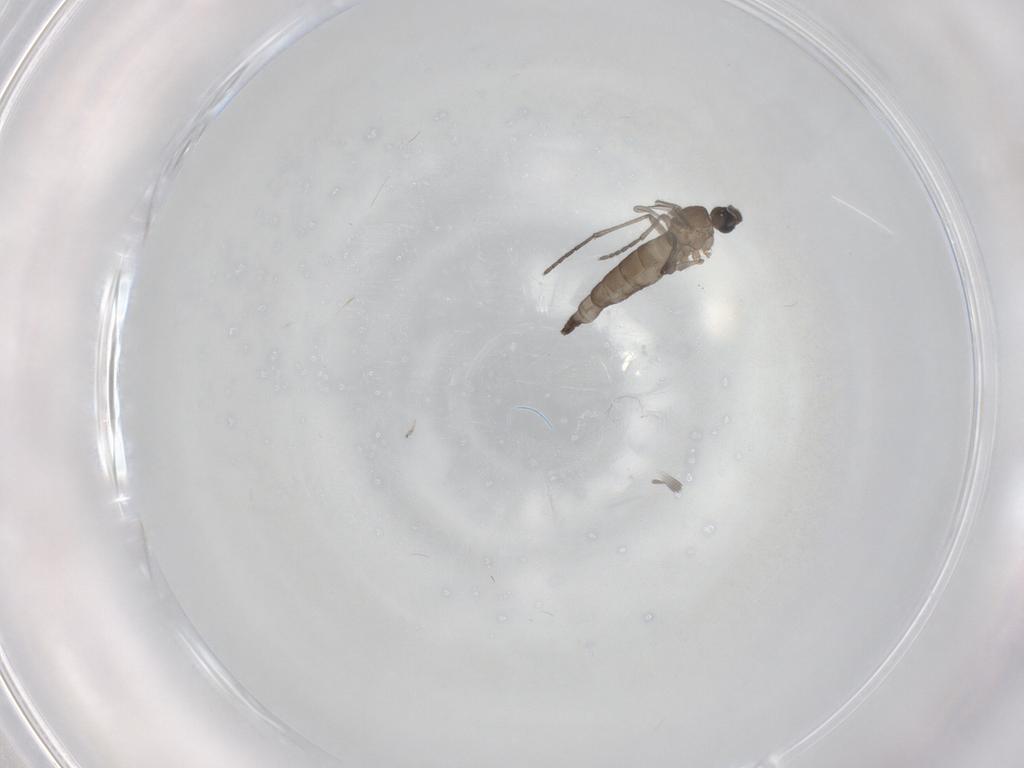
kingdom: Animalia
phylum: Arthropoda
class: Insecta
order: Diptera
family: Sciaridae
